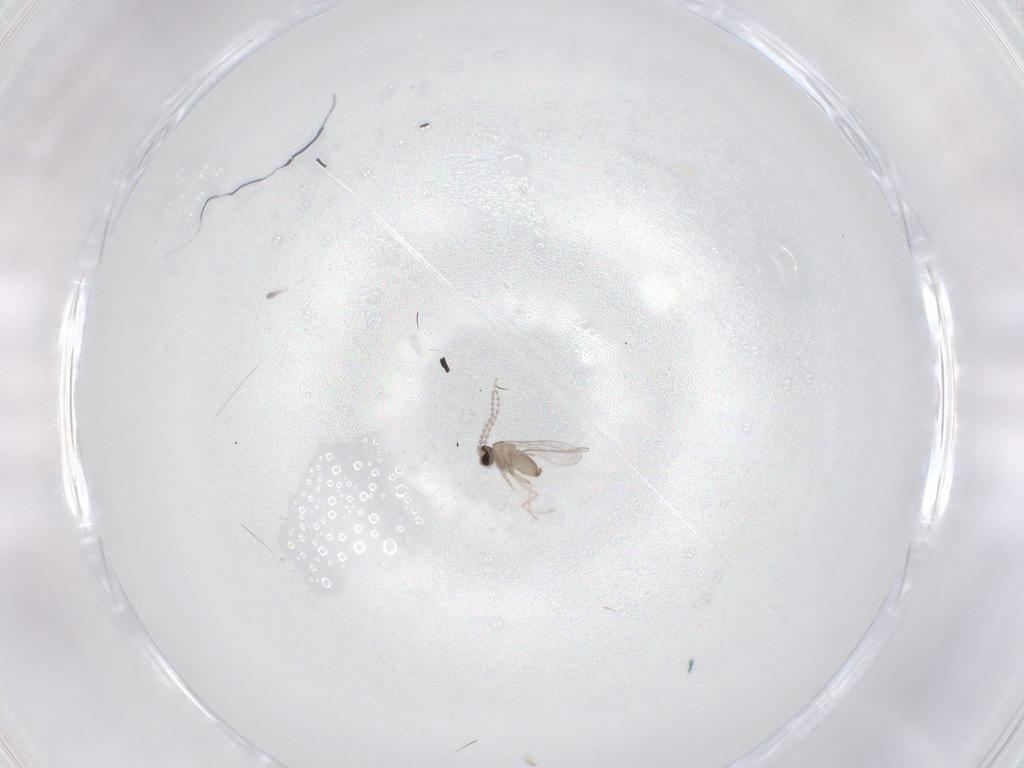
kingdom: Animalia
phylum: Arthropoda
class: Insecta
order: Diptera
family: Cecidomyiidae
